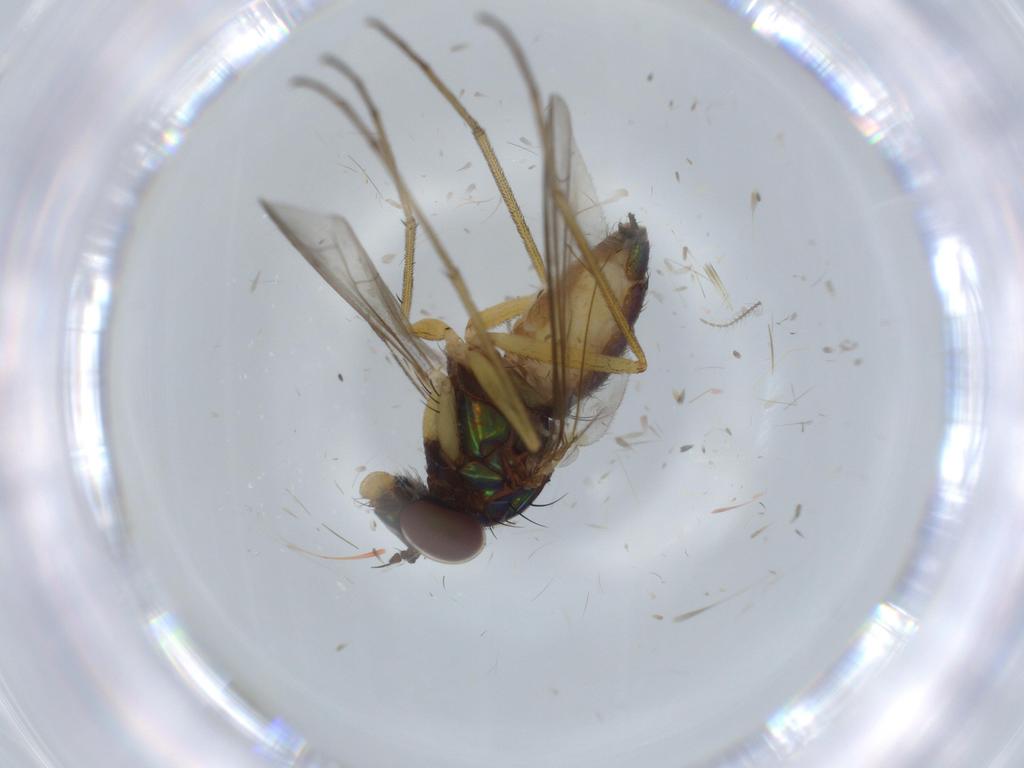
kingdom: Animalia
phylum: Arthropoda
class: Insecta
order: Diptera
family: Dolichopodidae
